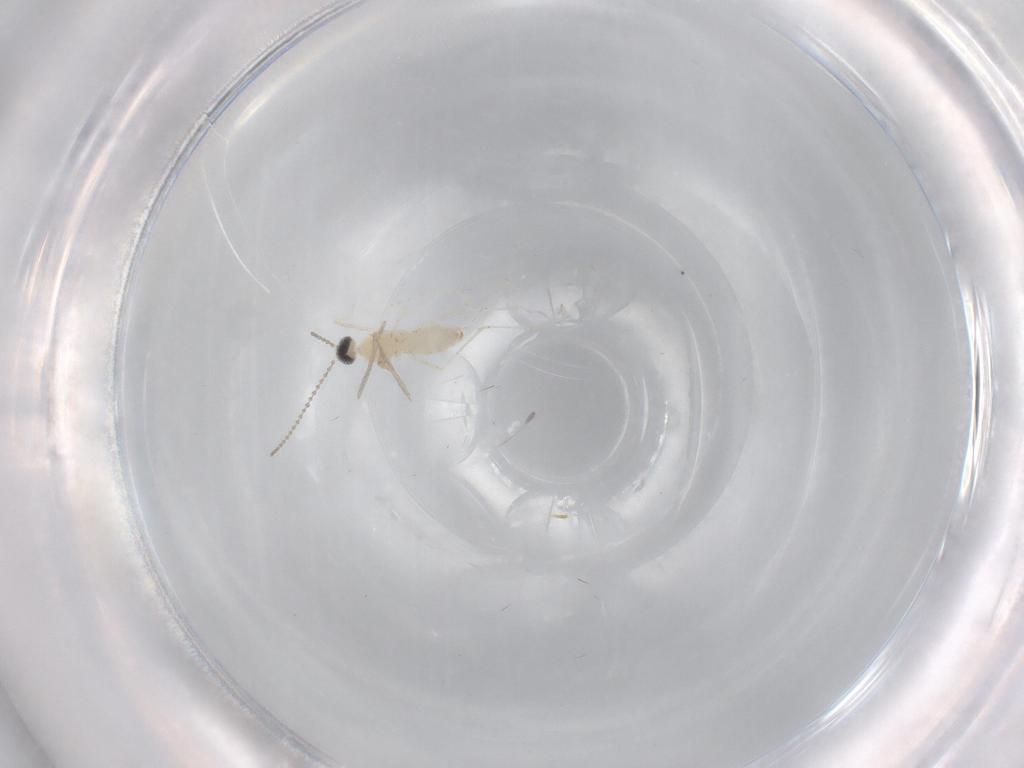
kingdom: Animalia
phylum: Arthropoda
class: Insecta
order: Diptera
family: Cecidomyiidae
